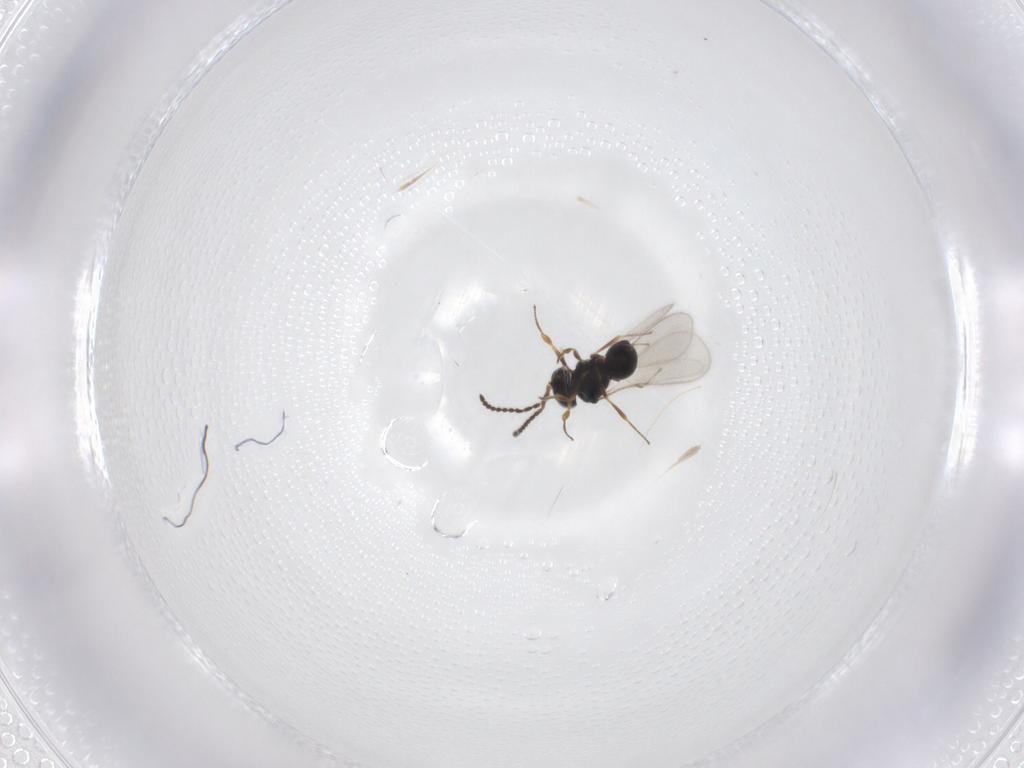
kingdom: Animalia
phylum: Arthropoda
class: Insecta
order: Hymenoptera
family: Scelionidae
